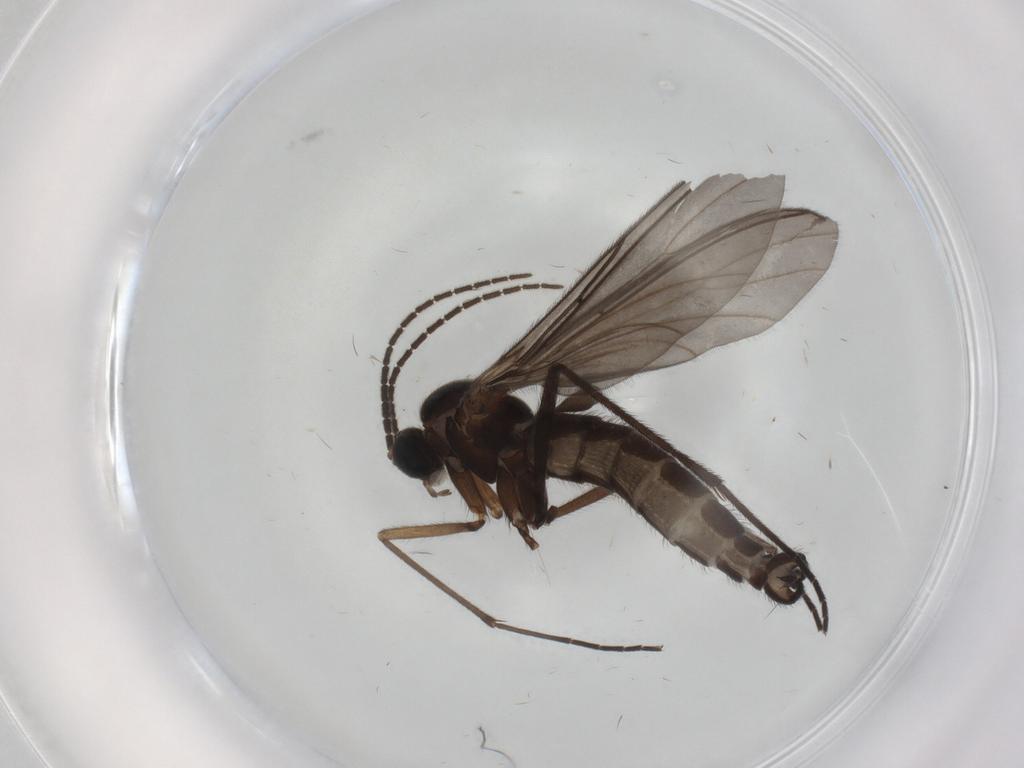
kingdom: Animalia
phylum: Arthropoda
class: Insecta
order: Diptera
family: Sciaridae
